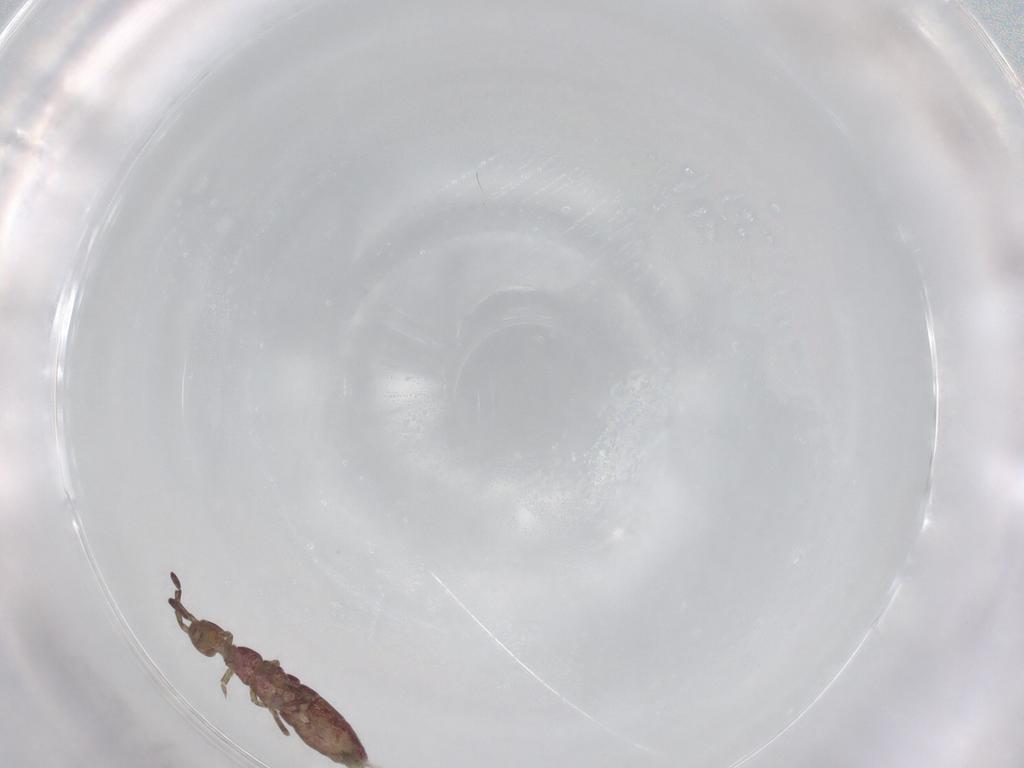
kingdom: Animalia
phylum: Arthropoda
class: Collembola
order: Entomobryomorpha
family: Isotomidae
